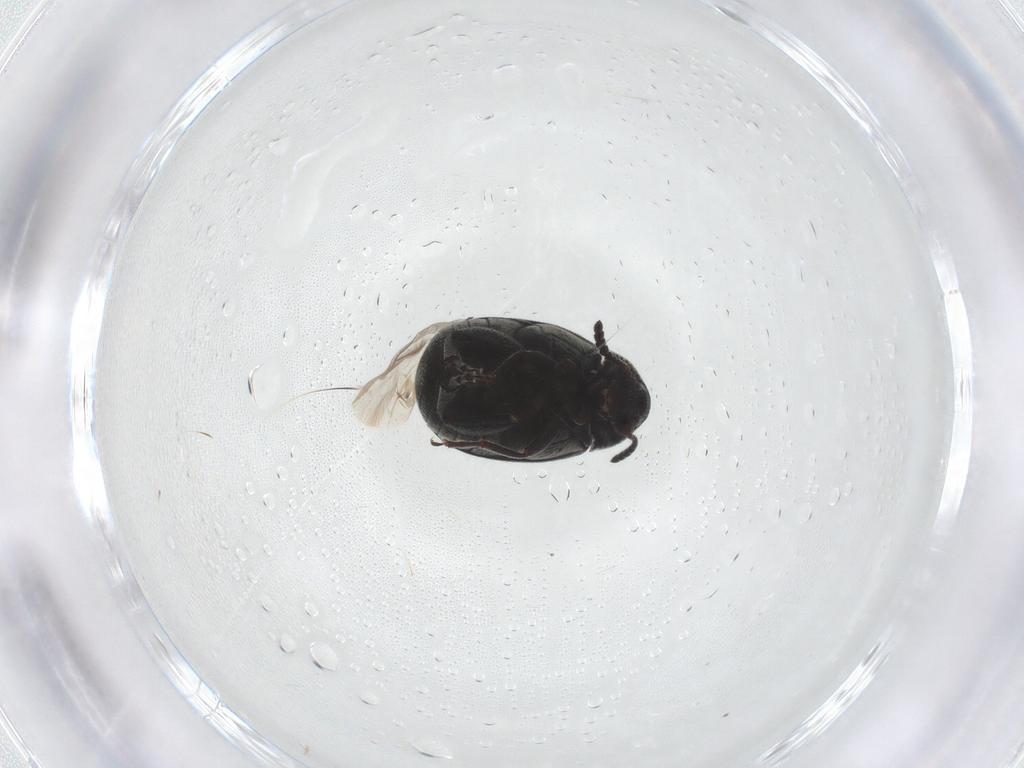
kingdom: Animalia
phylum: Arthropoda
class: Insecta
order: Coleoptera
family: Chrysomelidae
